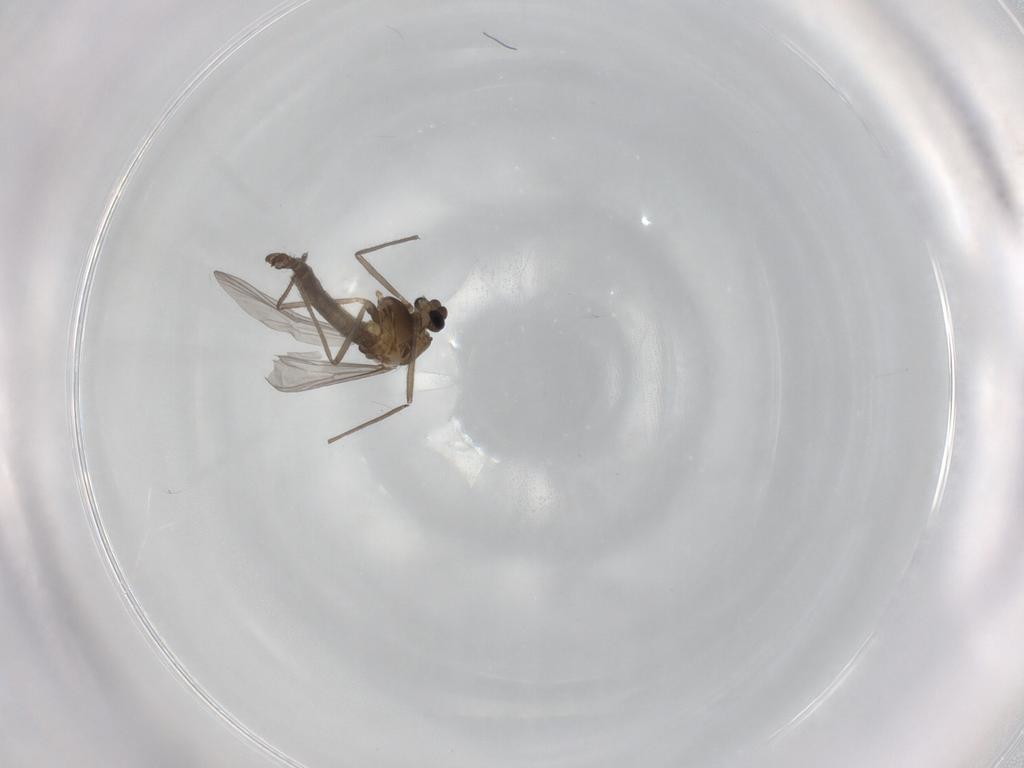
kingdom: Animalia
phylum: Arthropoda
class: Insecta
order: Diptera
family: Chironomidae
